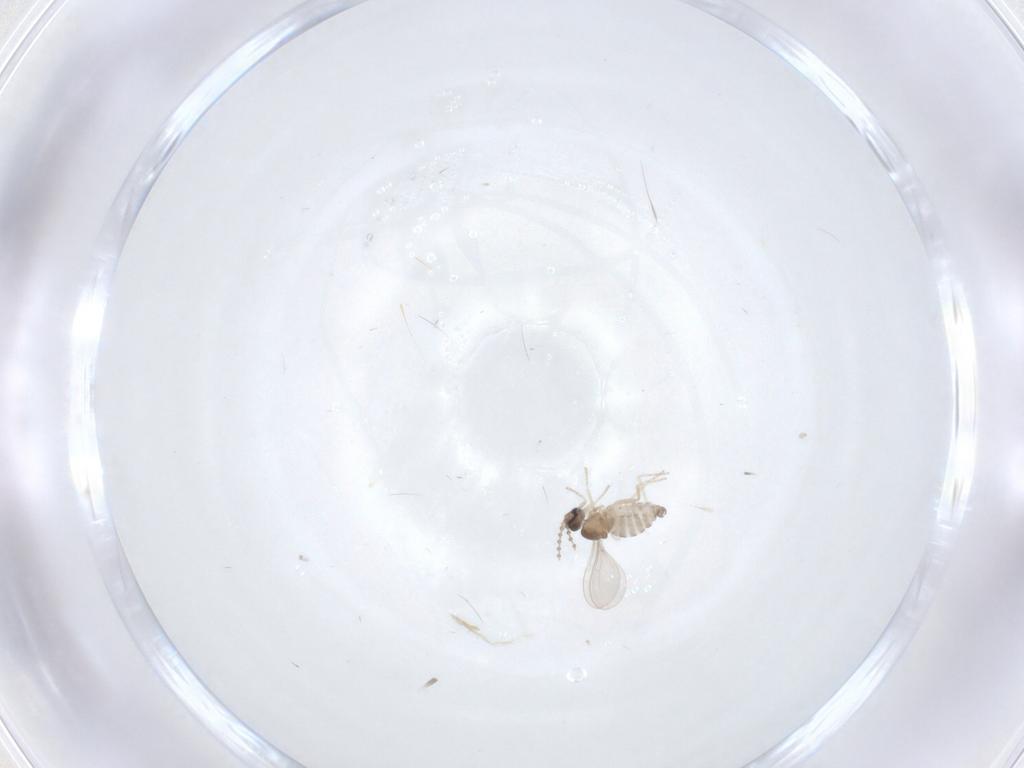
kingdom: Animalia
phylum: Arthropoda
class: Insecta
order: Diptera
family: Cecidomyiidae
